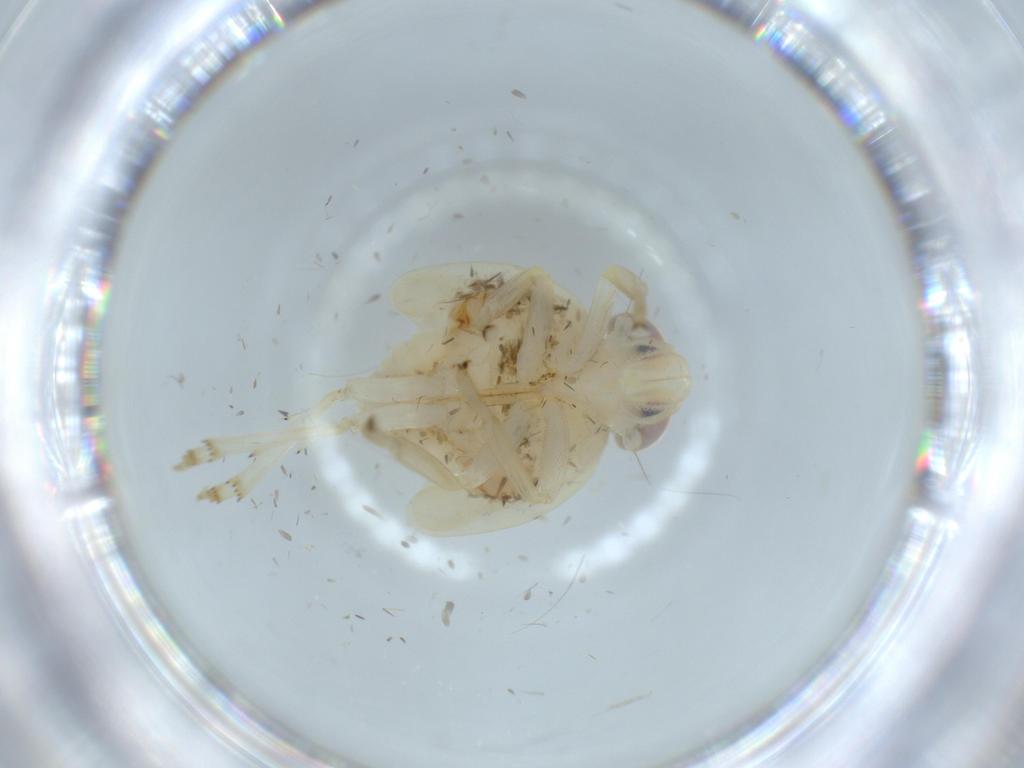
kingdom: Animalia
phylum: Arthropoda
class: Insecta
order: Hemiptera
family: Nogodinidae
